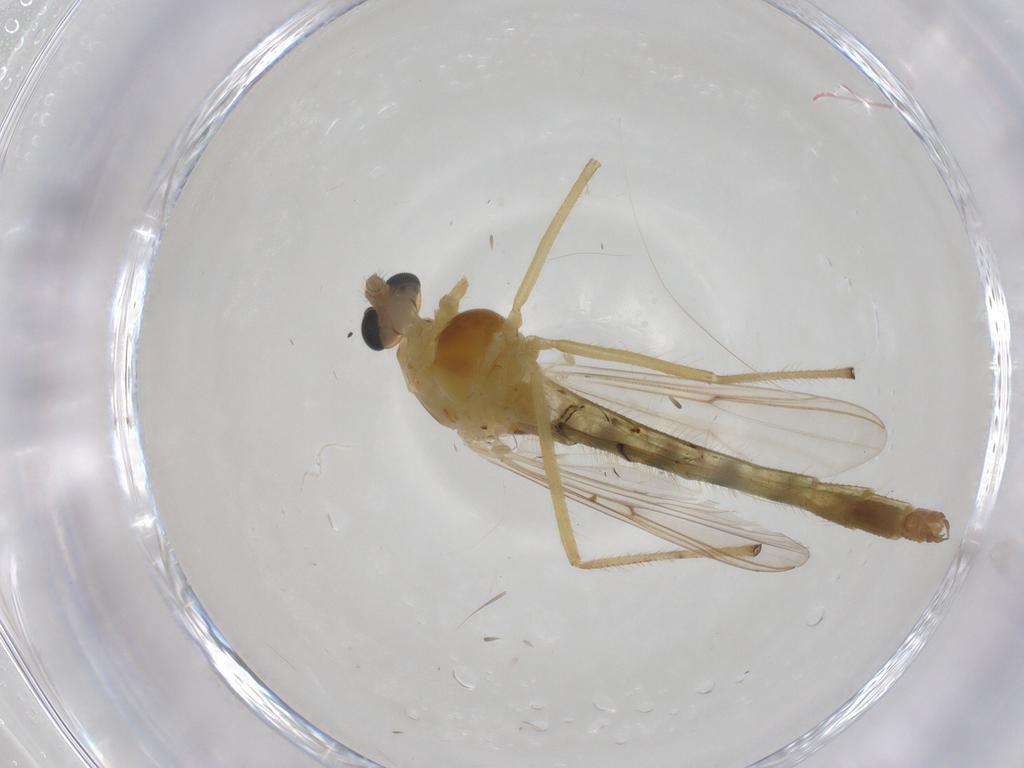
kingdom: Animalia
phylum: Arthropoda
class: Insecta
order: Diptera
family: Chironomidae
